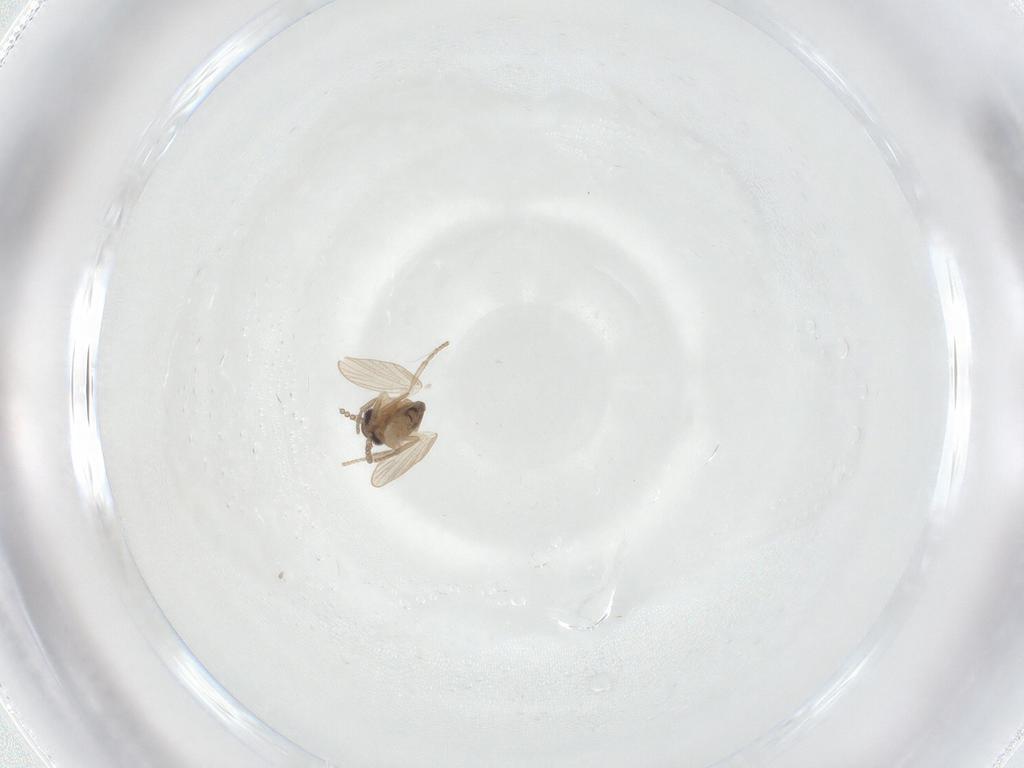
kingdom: Animalia
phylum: Arthropoda
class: Insecta
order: Diptera
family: Psychodidae
